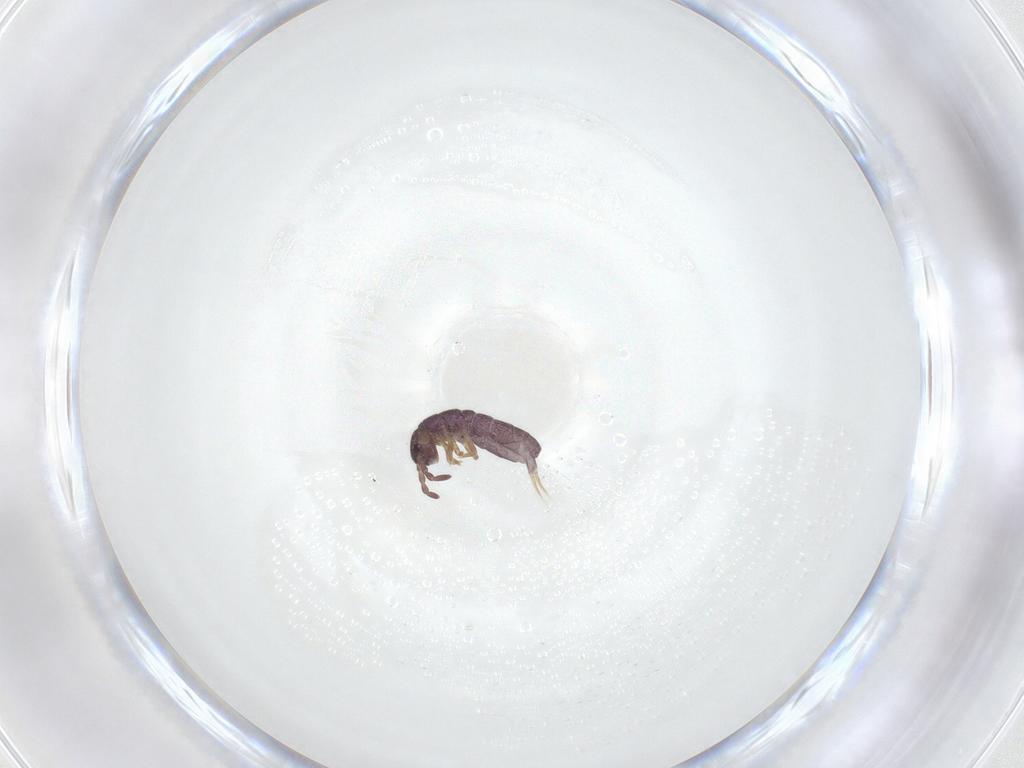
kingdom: Animalia
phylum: Arthropoda
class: Collembola
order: Entomobryomorpha
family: Isotomidae
